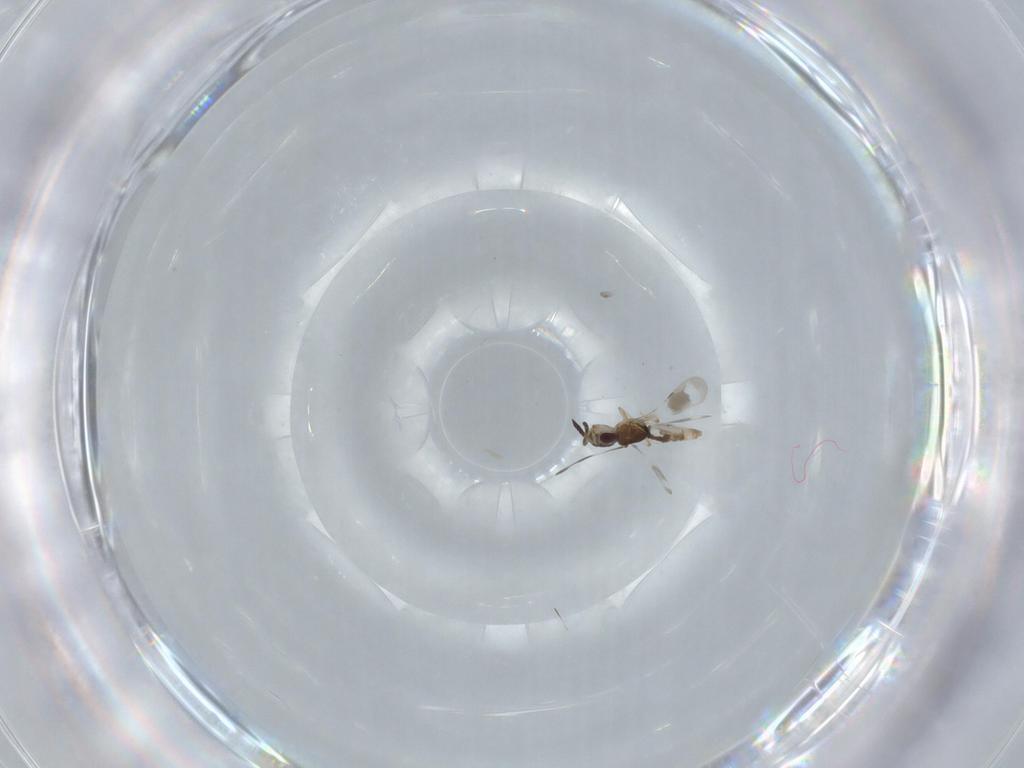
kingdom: Animalia
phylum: Arthropoda
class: Insecta
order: Hymenoptera
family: Ceraphronidae
